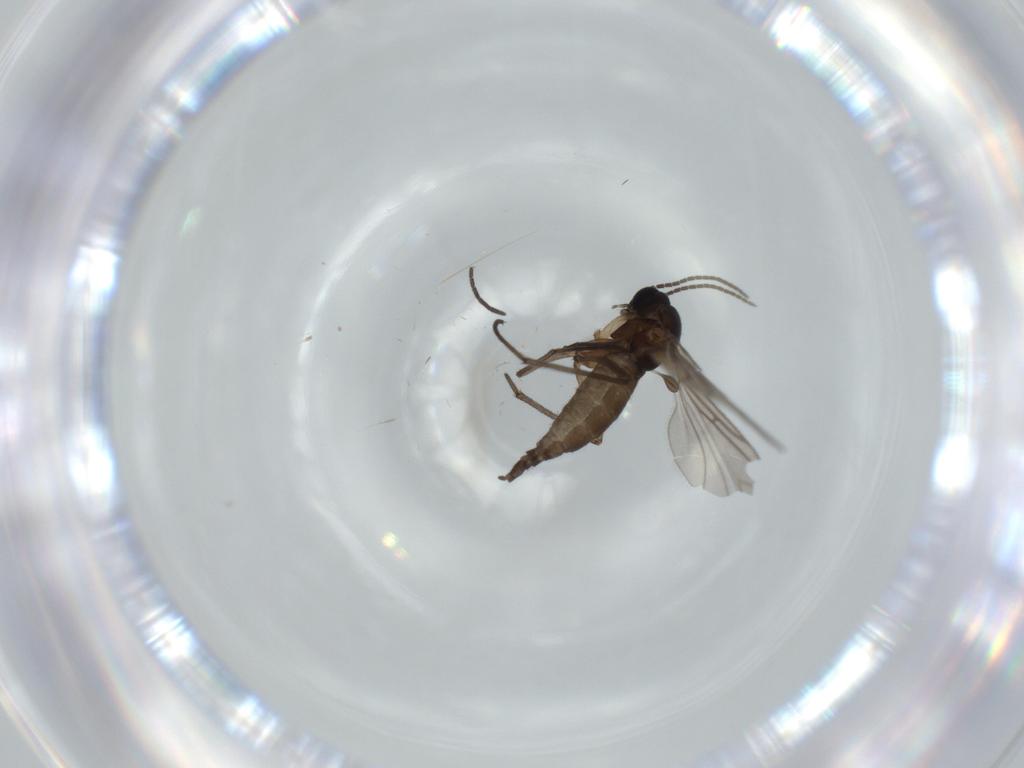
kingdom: Animalia
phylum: Arthropoda
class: Insecta
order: Diptera
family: Sciaridae
